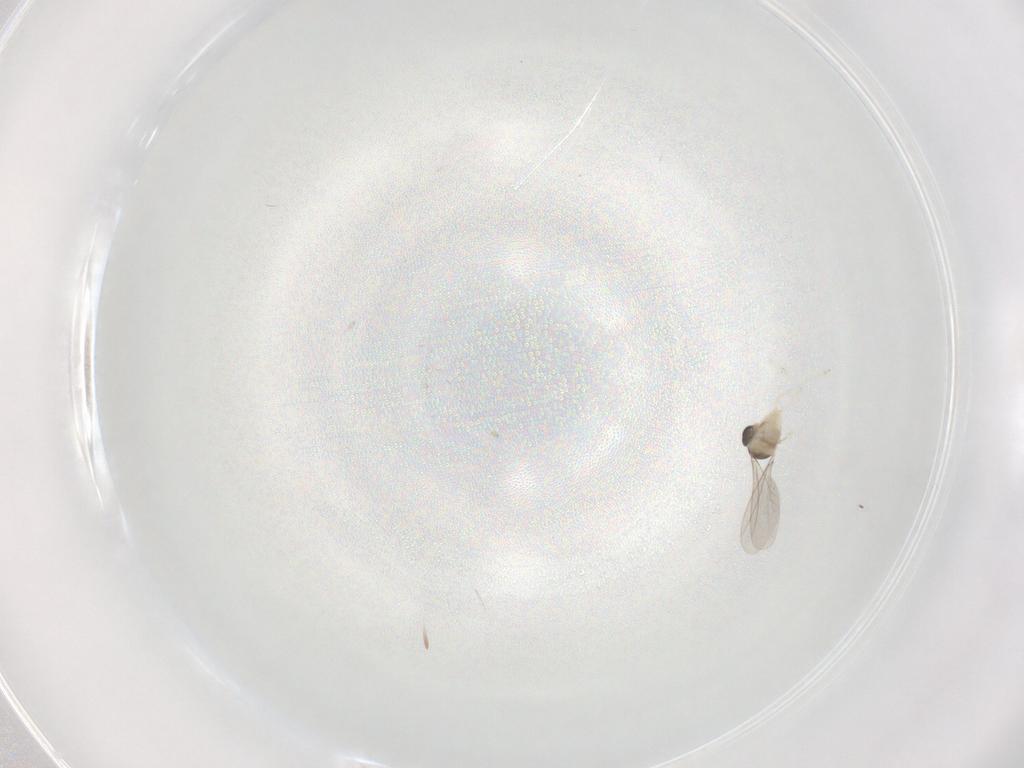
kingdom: Animalia
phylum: Arthropoda
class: Insecta
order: Diptera
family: Cecidomyiidae
